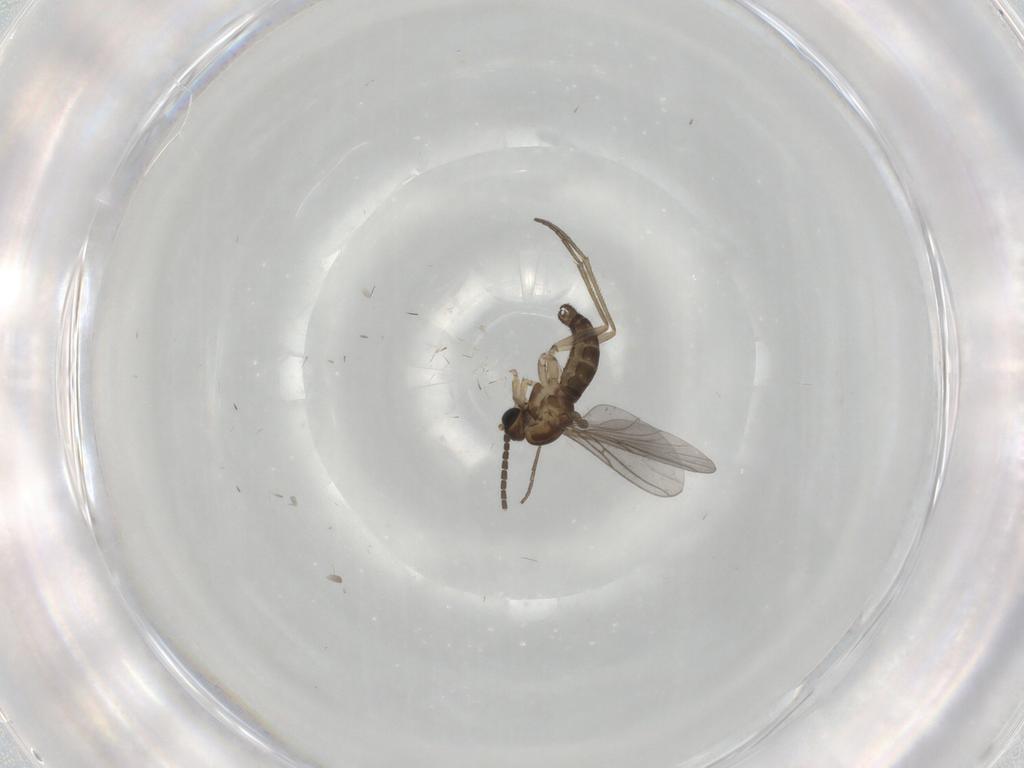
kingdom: Animalia
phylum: Arthropoda
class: Insecta
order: Diptera
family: Sciaridae
